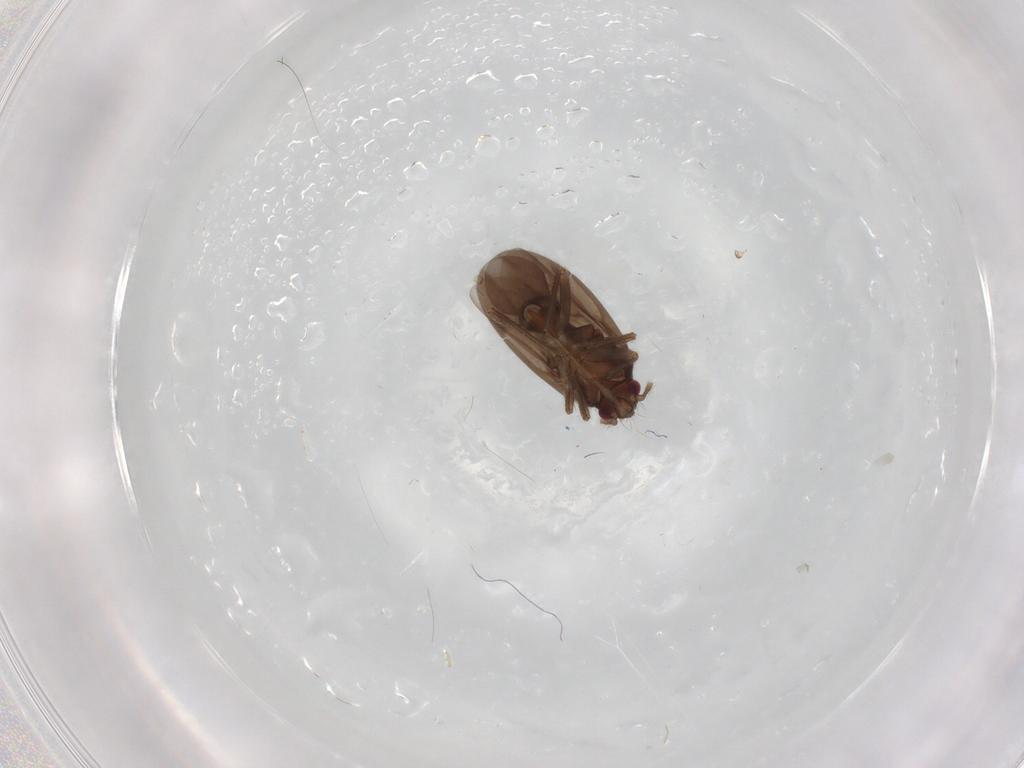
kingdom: Animalia
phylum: Arthropoda
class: Insecta
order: Hemiptera
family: Ceratocombidae
